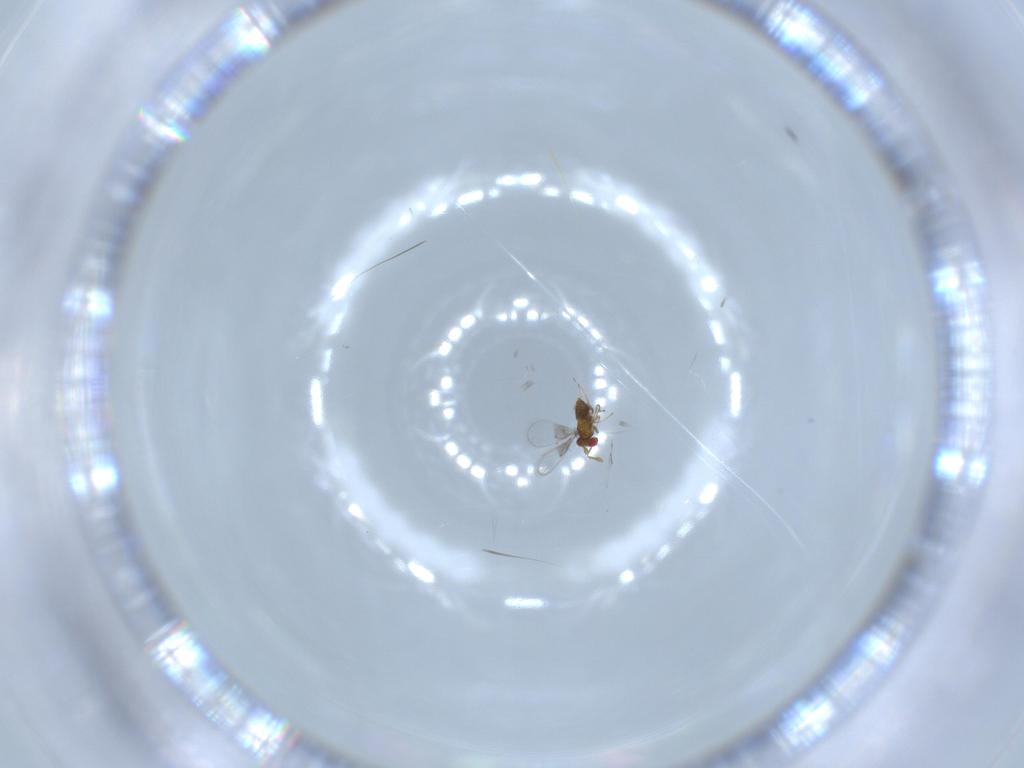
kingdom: Animalia
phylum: Arthropoda
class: Insecta
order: Hymenoptera
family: Trichogrammatidae
